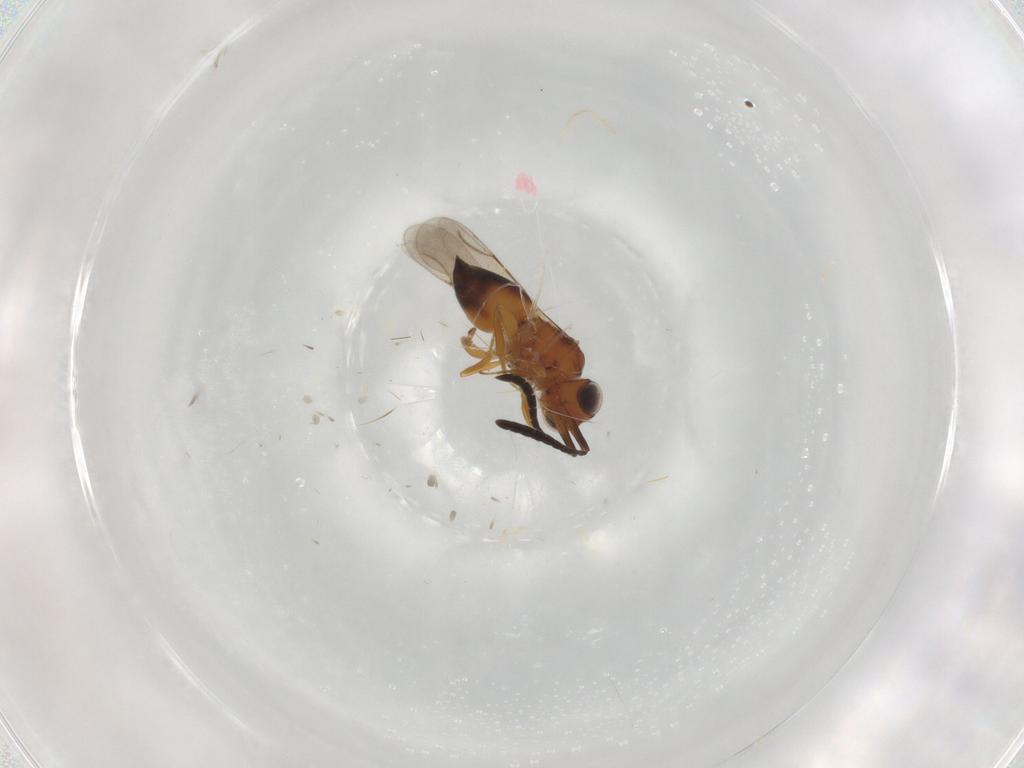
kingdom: Animalia
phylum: Arthropoda
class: Insecta
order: Hymenoptera
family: Ceraphronidae
